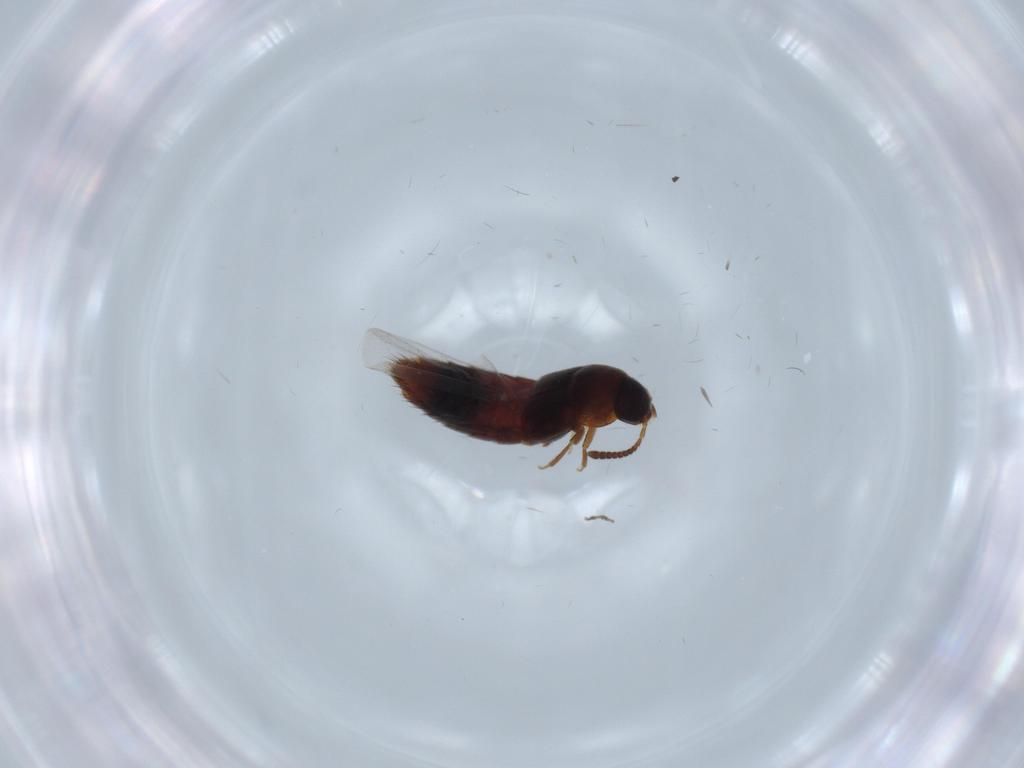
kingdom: Animalia
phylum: Arthropoda
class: Insecta
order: Coleoptera
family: Staphylinidae
